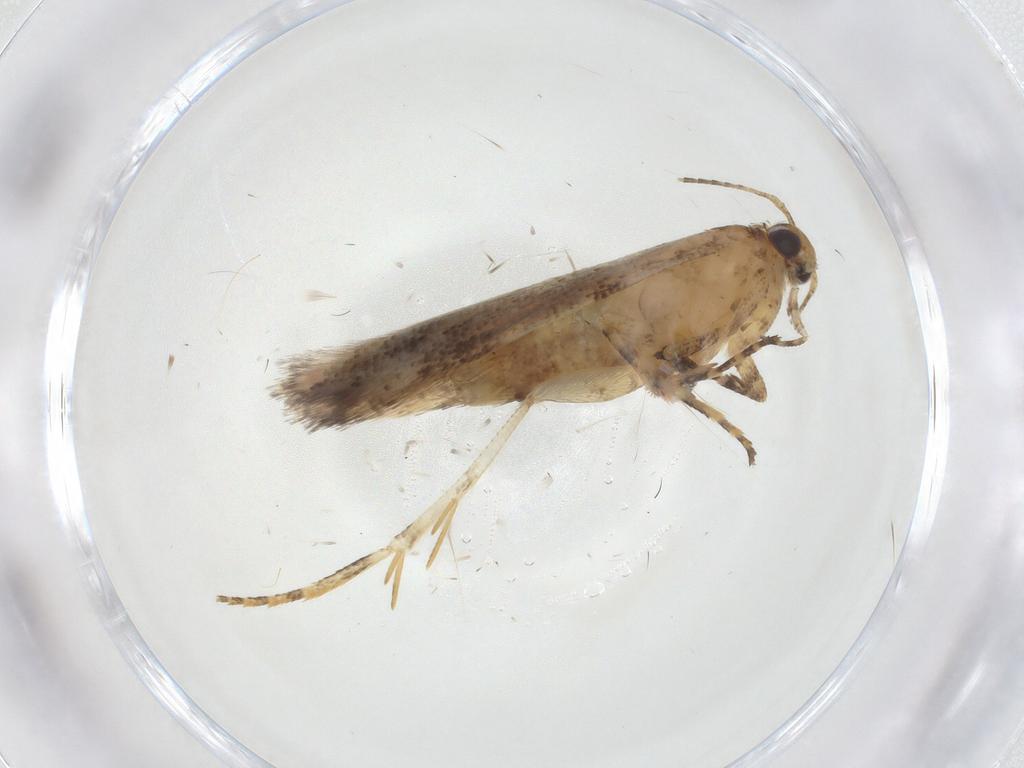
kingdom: Animalia
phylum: Arthropoda
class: Insecta
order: Lepidoptera
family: Gelechiidae
